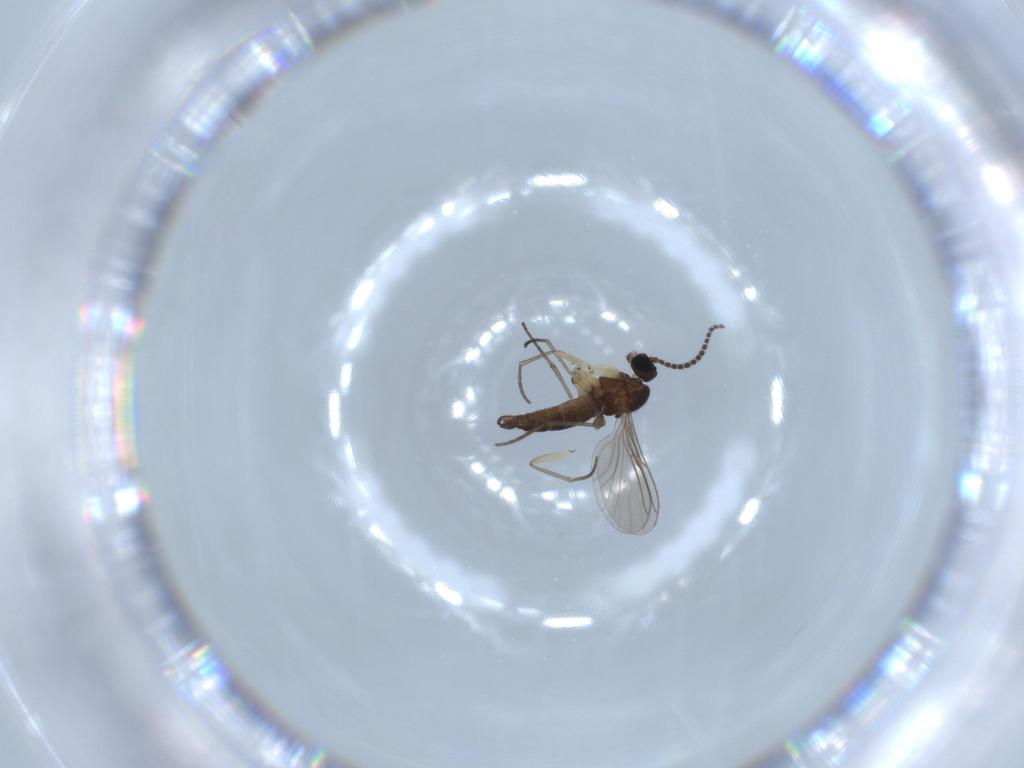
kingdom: Animalia
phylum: Arthropoda
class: Insecta
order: Diptera
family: Sciaridae
